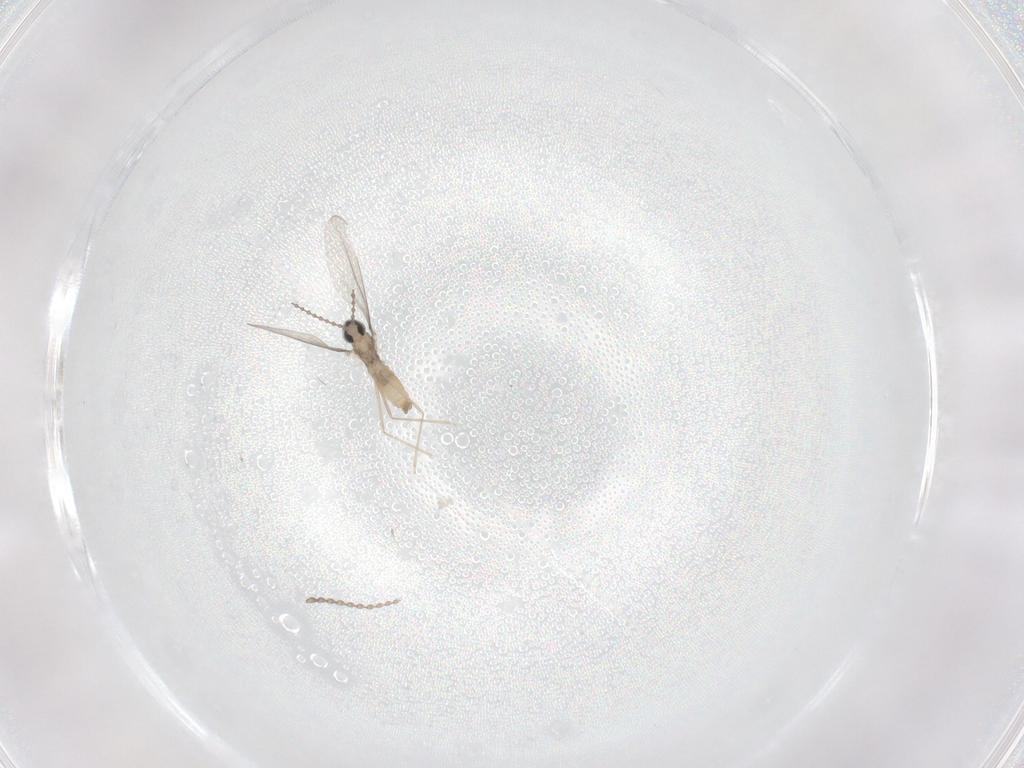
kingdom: Animalia
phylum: Arthropoda
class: Insecta
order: Diptera
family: Cecidomyiidae
